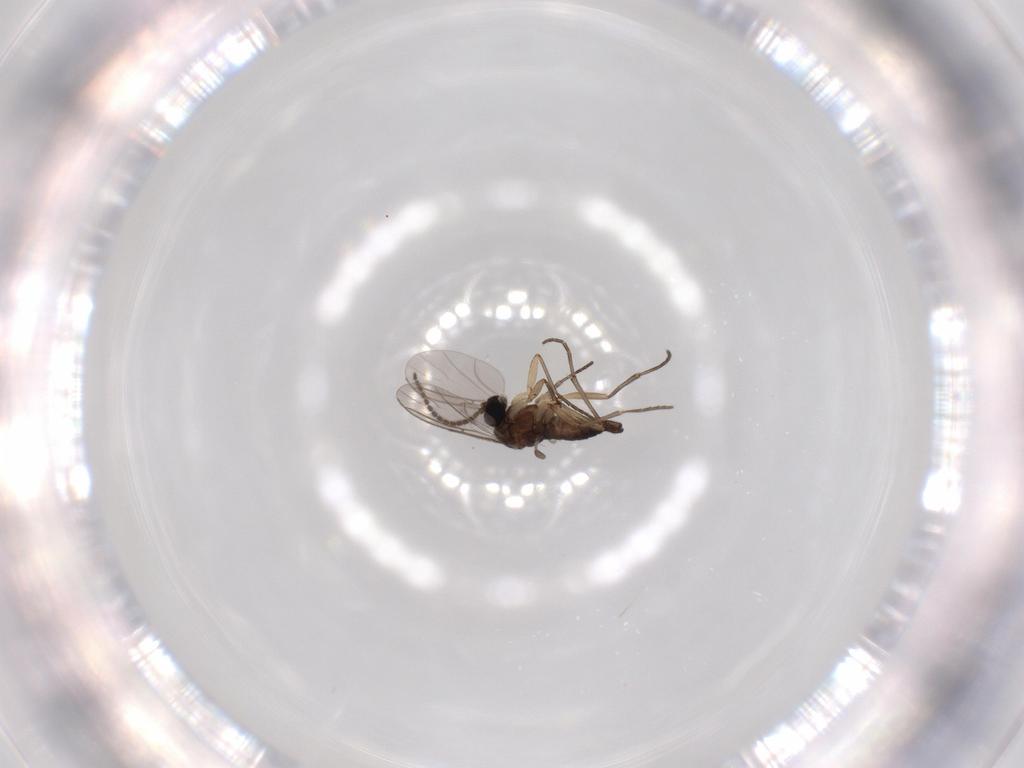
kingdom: Animalia
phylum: Arthropoda
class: Insecta
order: Diptera
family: Sciaridae
